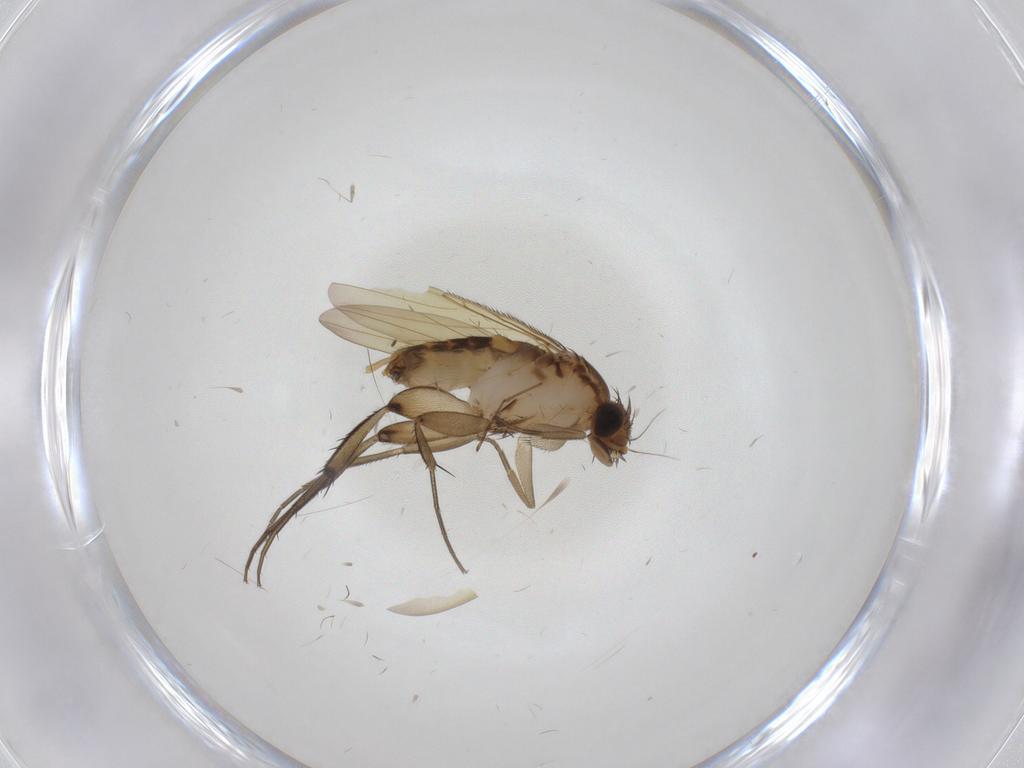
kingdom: Animalia
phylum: Arthropoda
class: Insecta
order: Diptera
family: Phoridae
